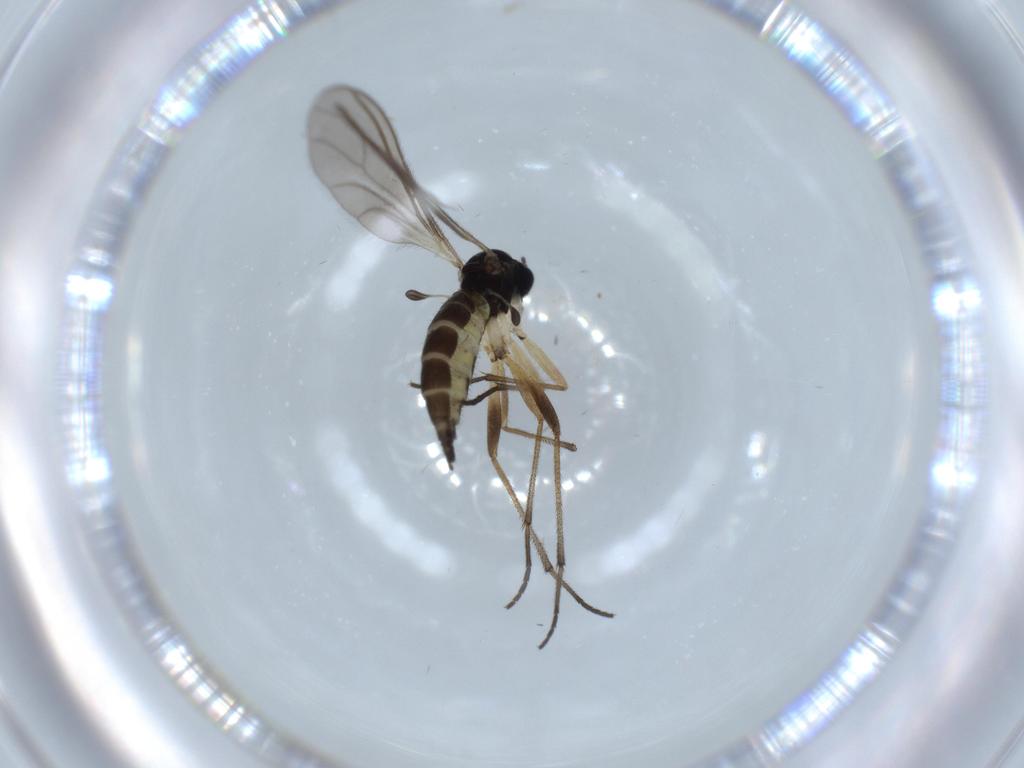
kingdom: Animalia
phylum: Arthropoda
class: Insecta
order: Diptera
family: Sciaridae
